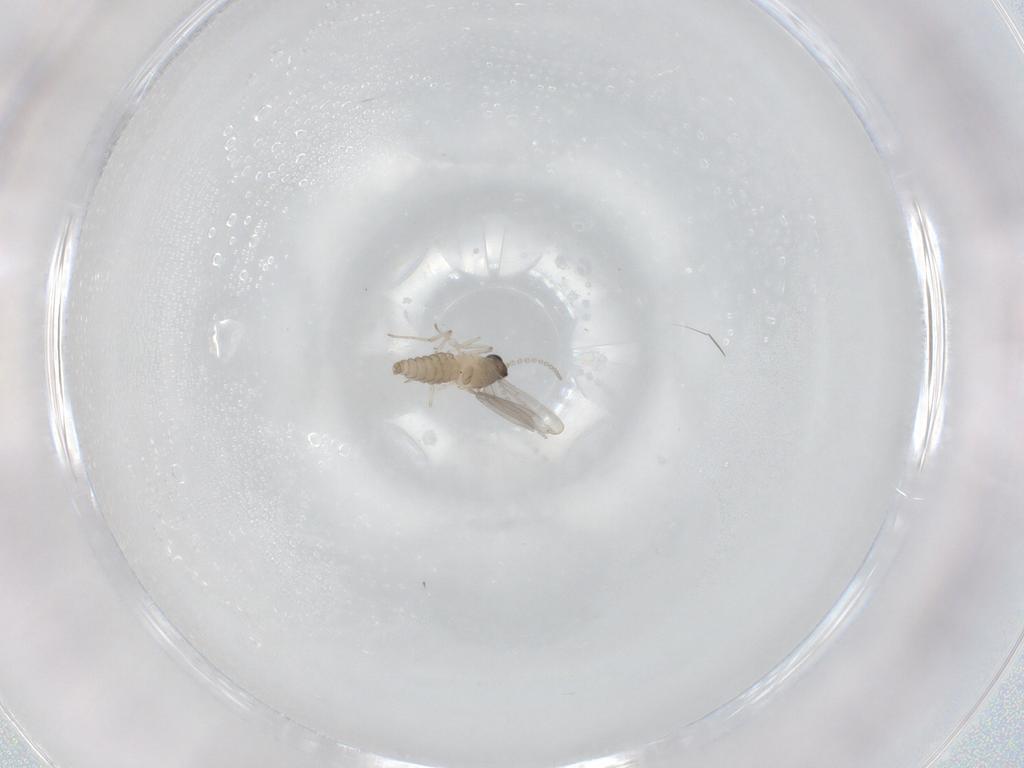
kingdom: Animalia
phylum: Arthropoda
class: Insecta
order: Diptera
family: Cecidomyiidae
